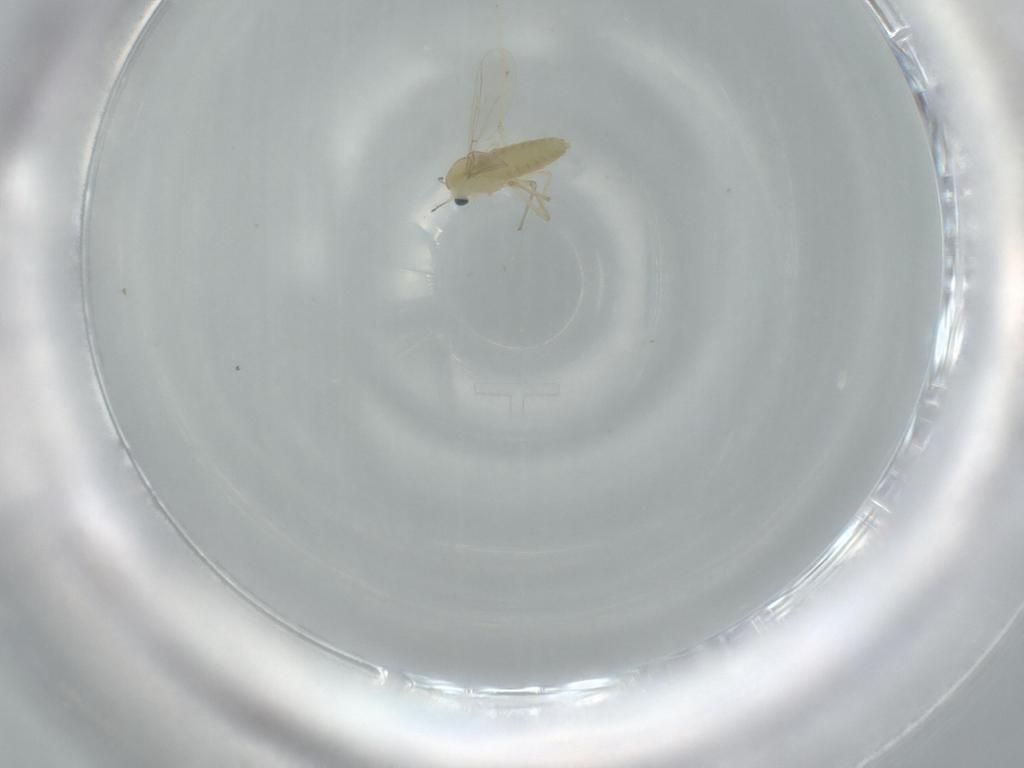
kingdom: Animalia
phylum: Arthropoda
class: Insecta
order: Diptera
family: Chironomidae
